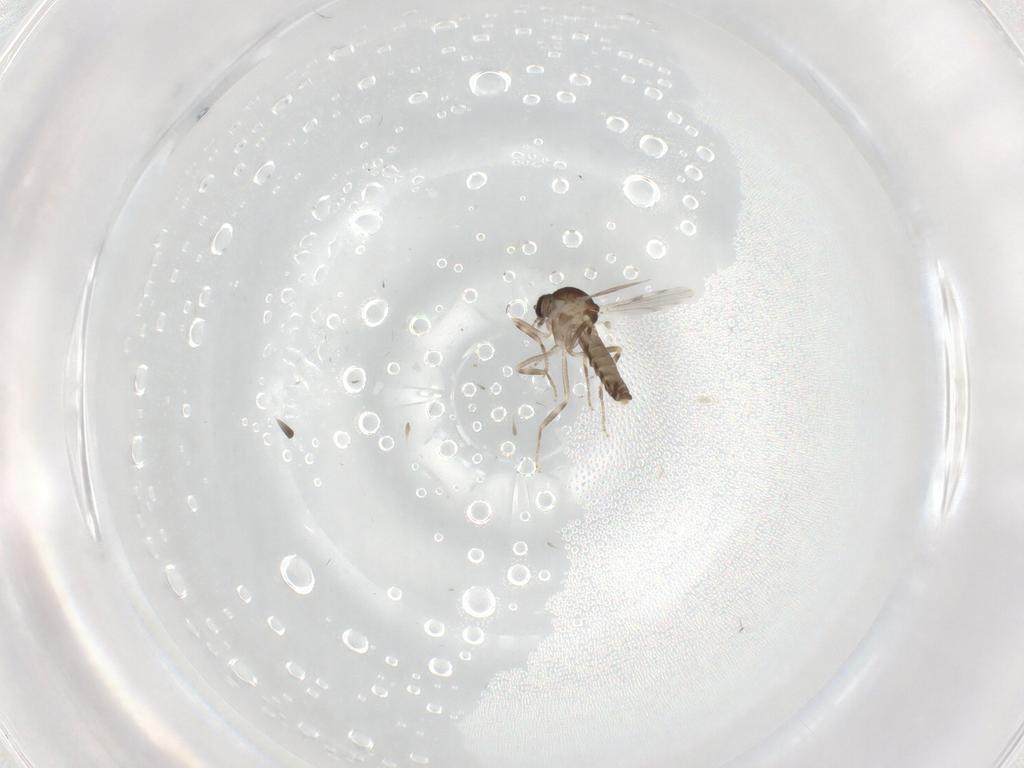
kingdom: Animalia
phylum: Arthropoda
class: Insecta
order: Diptera
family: Ceratopogonidae
